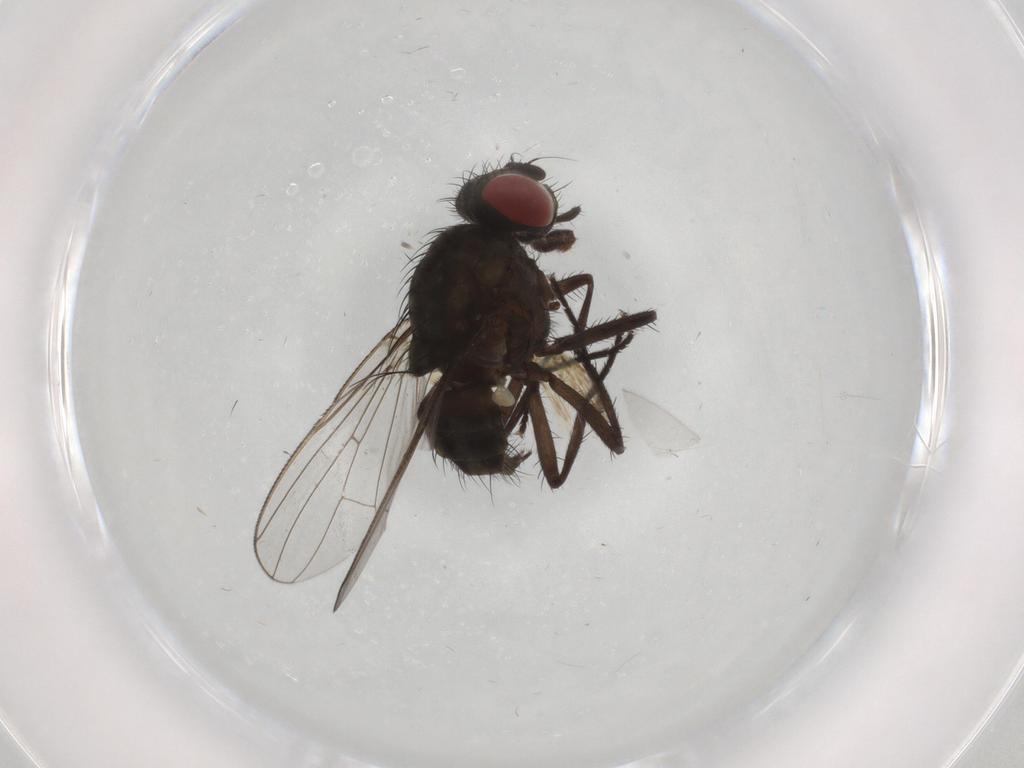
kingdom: Animalia
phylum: Arthropoda
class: Insecta
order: Diptera
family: Anthomyiidae
